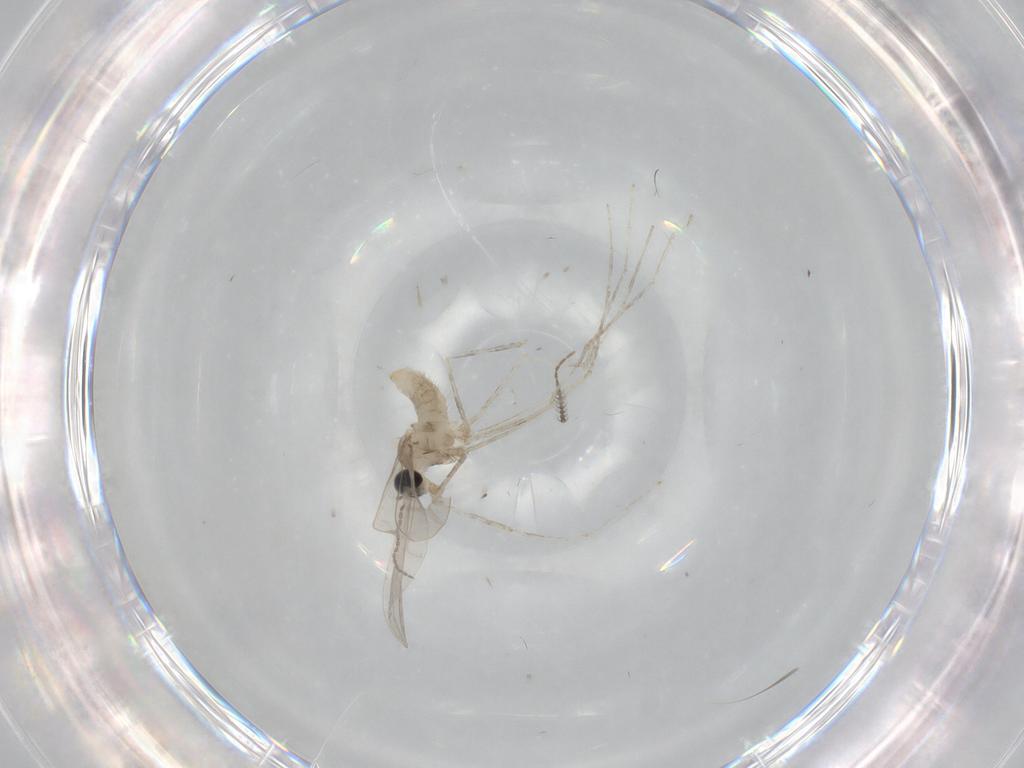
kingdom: Animalia
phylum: Arthropoda
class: Insecta
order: Diptera
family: Cecidomyiidae
